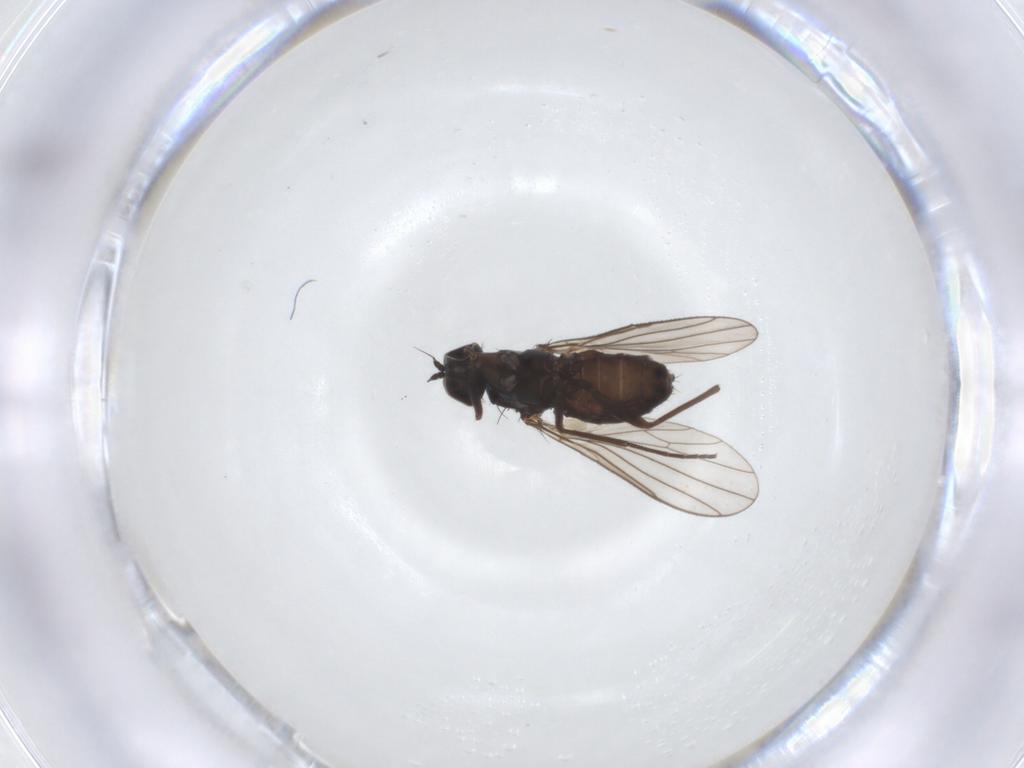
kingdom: Animalia
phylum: Arthropoda
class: Insecta
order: Diptera
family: Dolichopodidae
